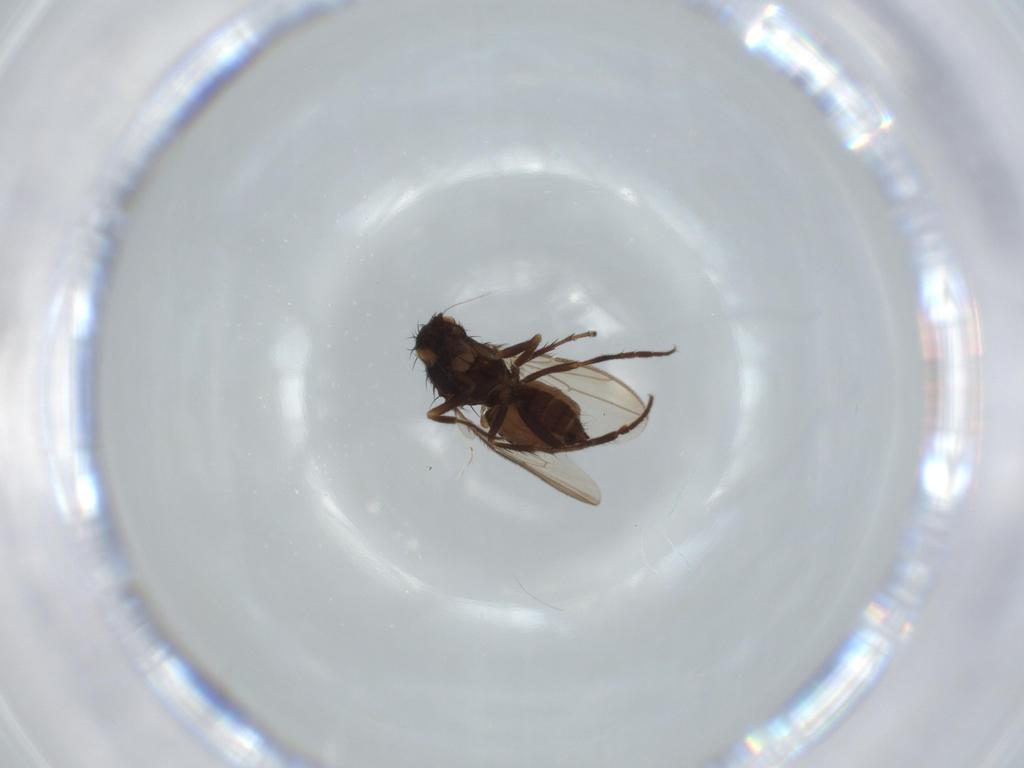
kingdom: Animalia
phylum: Arthropoda
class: Insecta
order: Diptera
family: Sphaeroceridae
